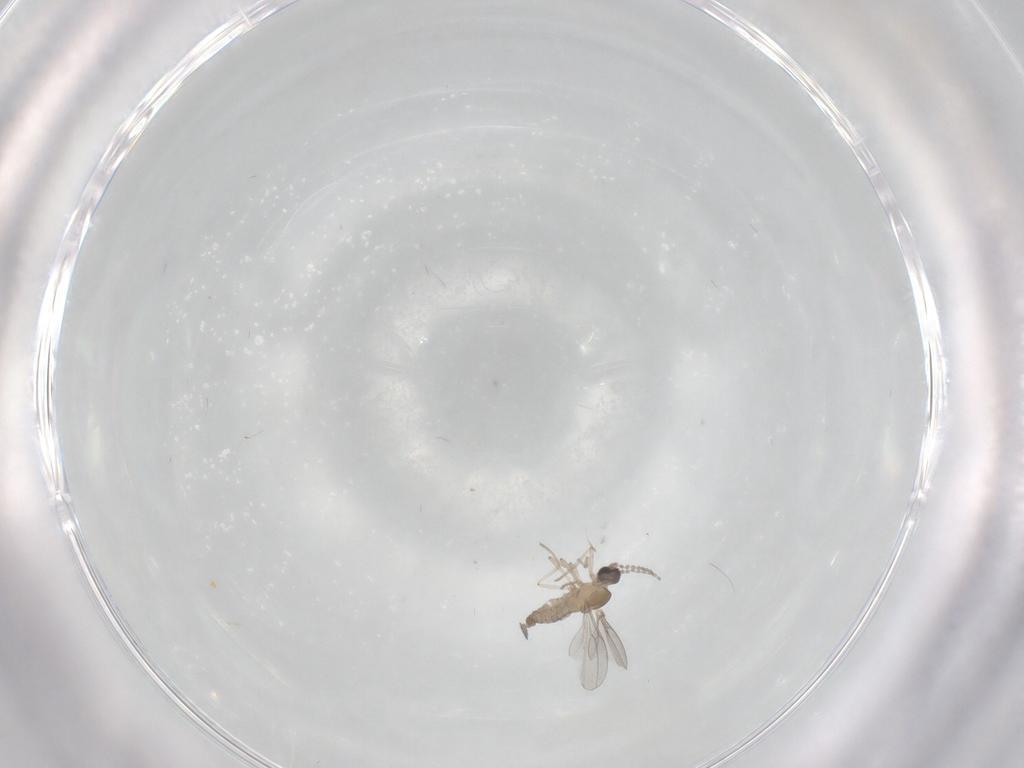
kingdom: Animalia
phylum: Arthropoda
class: Insecta
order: Diptera
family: Cecidomyiidae
